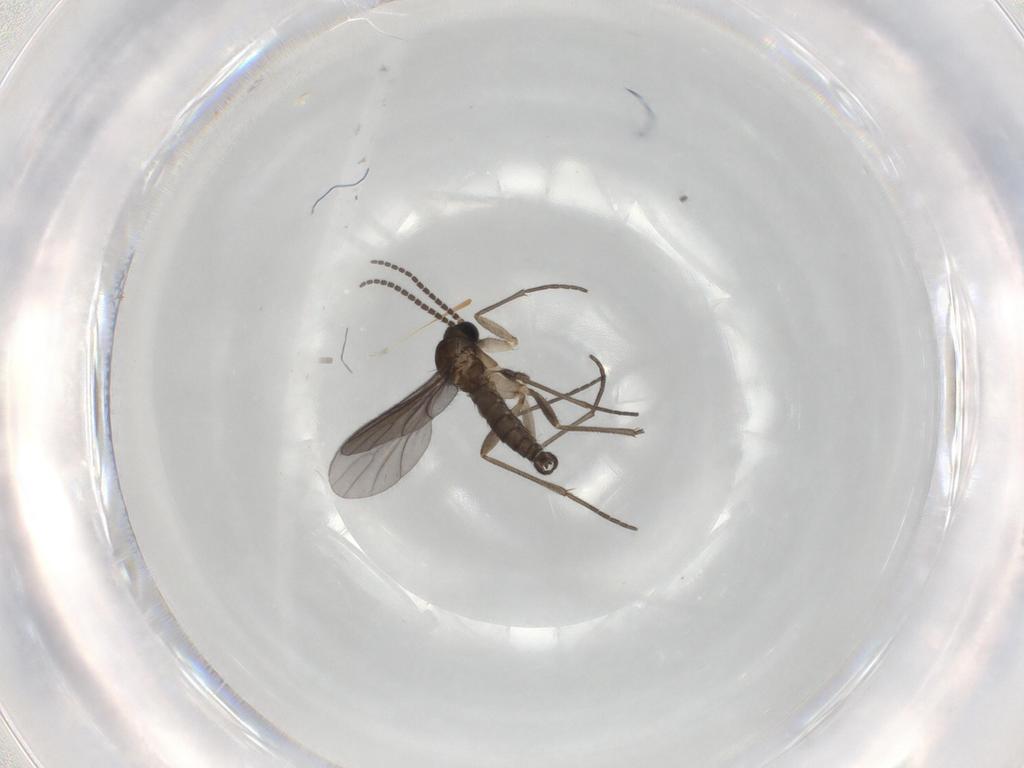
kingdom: Animalia
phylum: Arthropoda
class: Insecta
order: Diptera
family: Sciaridae
